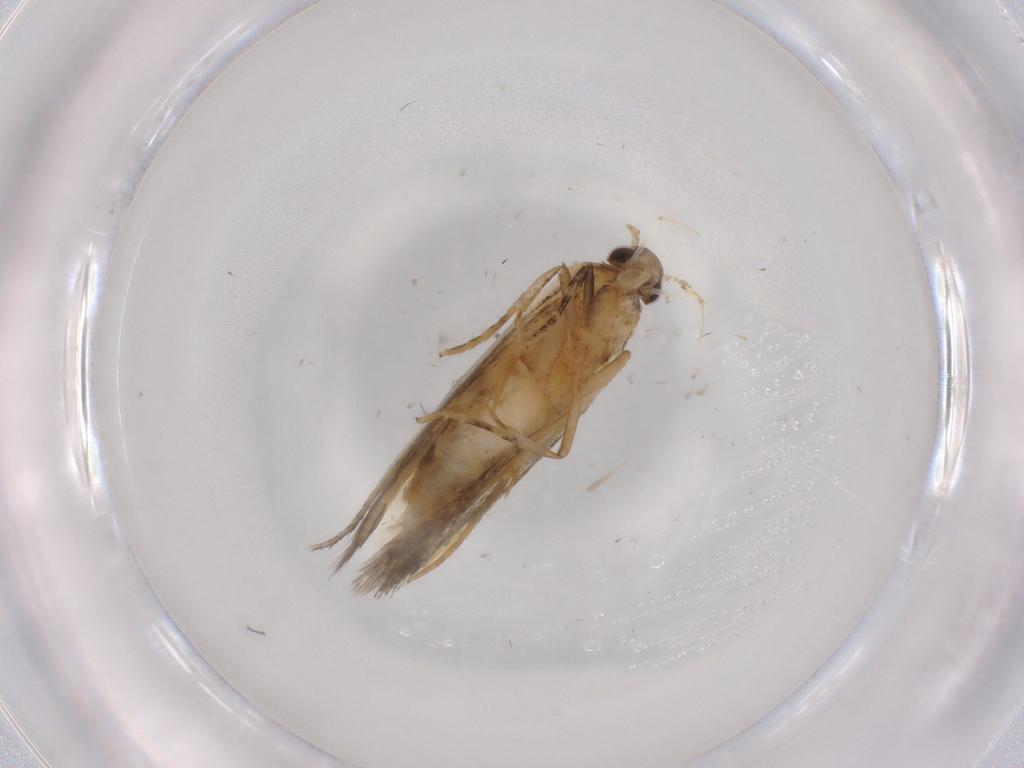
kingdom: Animalia
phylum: Arthropoda
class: Insecta
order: Lepidoptera
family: Autostichidae
